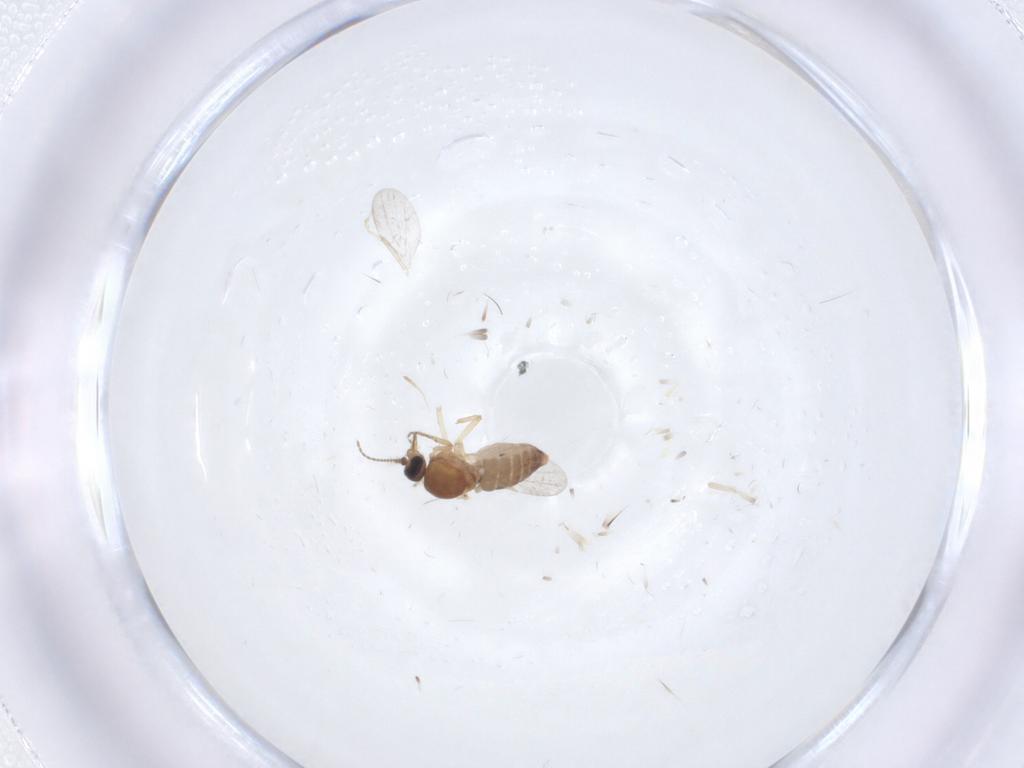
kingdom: Animalia
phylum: Arthropoda
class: Insecta
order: Diptera
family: Ceratopogonidae
